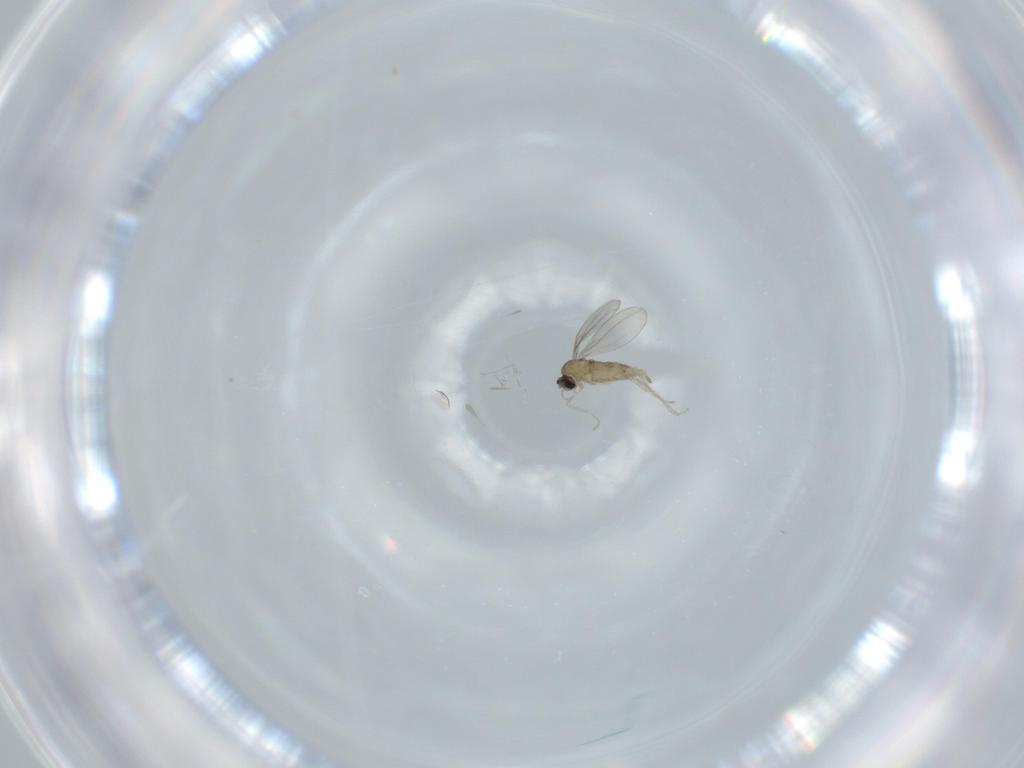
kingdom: Animalia
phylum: Arthropoda
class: Insecta
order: Diptera
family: Cecidomyiidae
